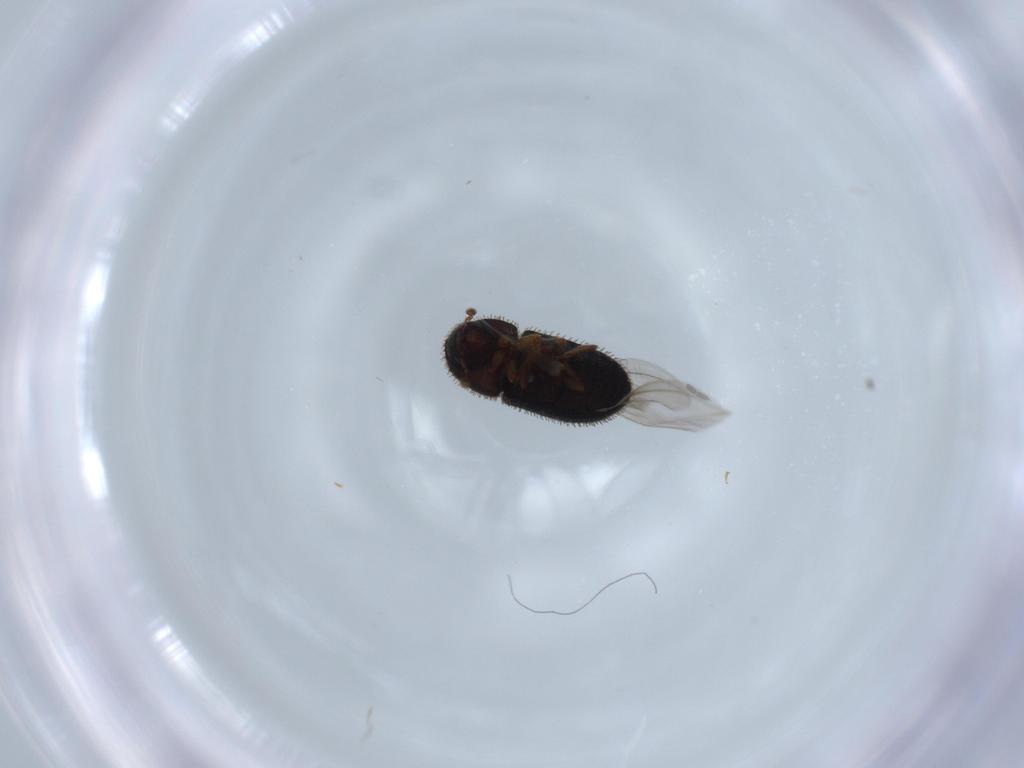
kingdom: Animalia
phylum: Arthropoda
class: Insecta
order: Coleoptera
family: Curculionidae
